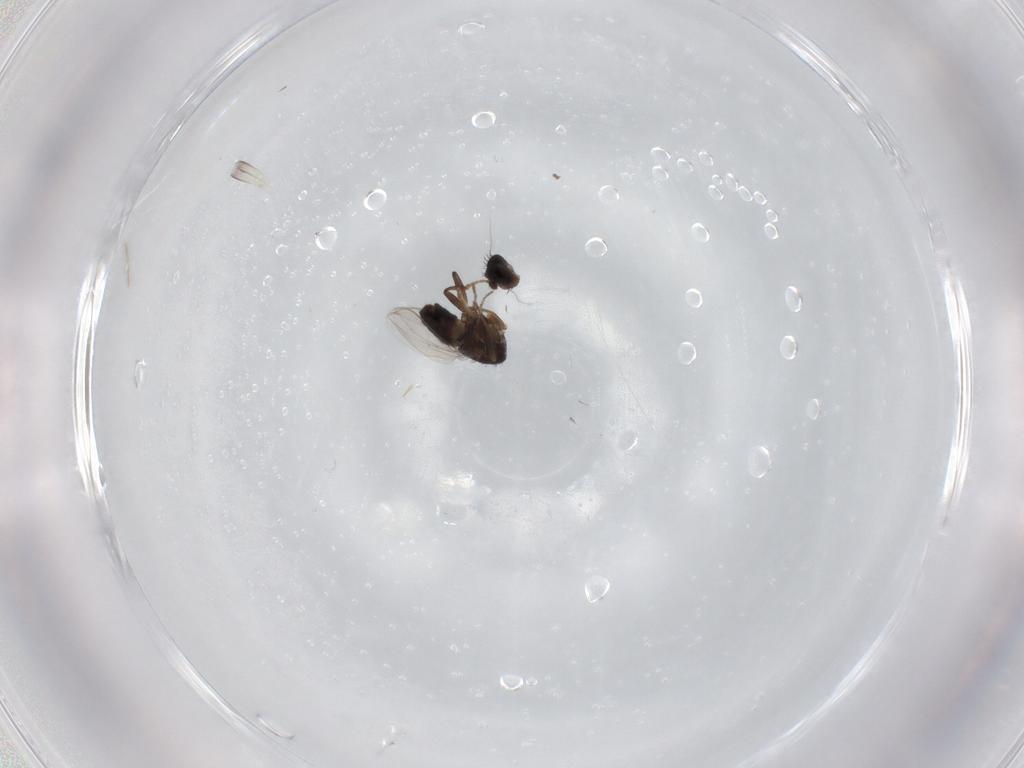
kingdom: Animalia
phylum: Arthropoda
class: Insecta
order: Diptera
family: Sphaeroceridae
